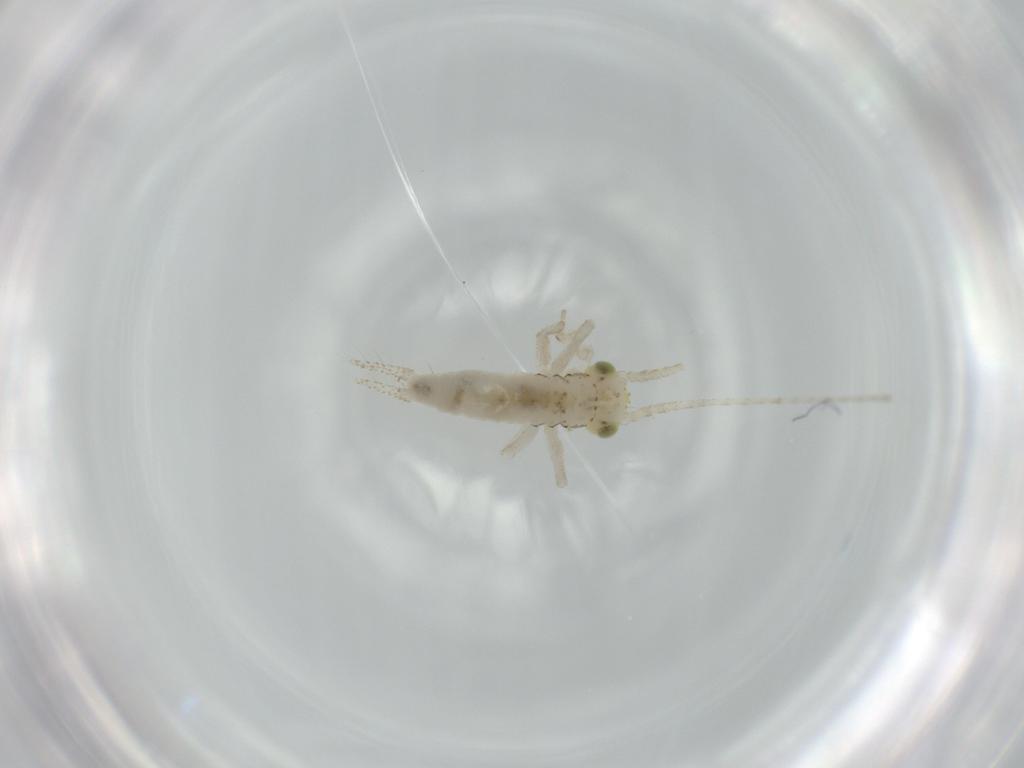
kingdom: Animalia
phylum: Arthropoda
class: Insecta
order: Orthoptera
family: Trigonidiidae
